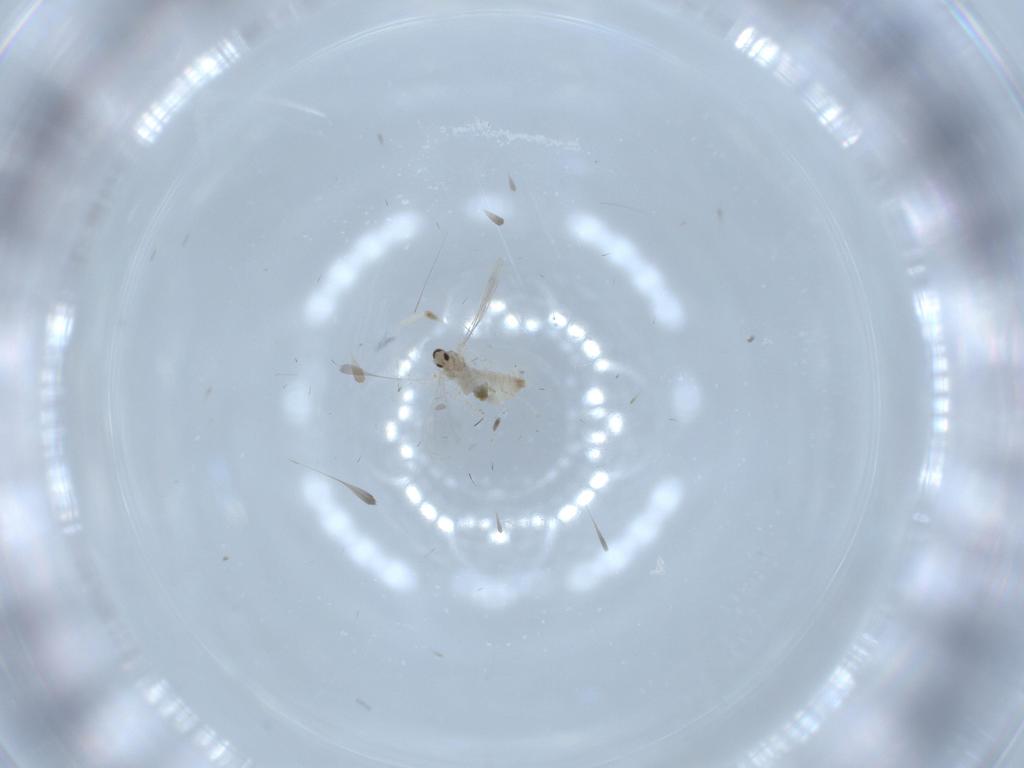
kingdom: Animalia
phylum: Arthropoda
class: Insecta
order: Diptera
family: Cecidomyiidae
